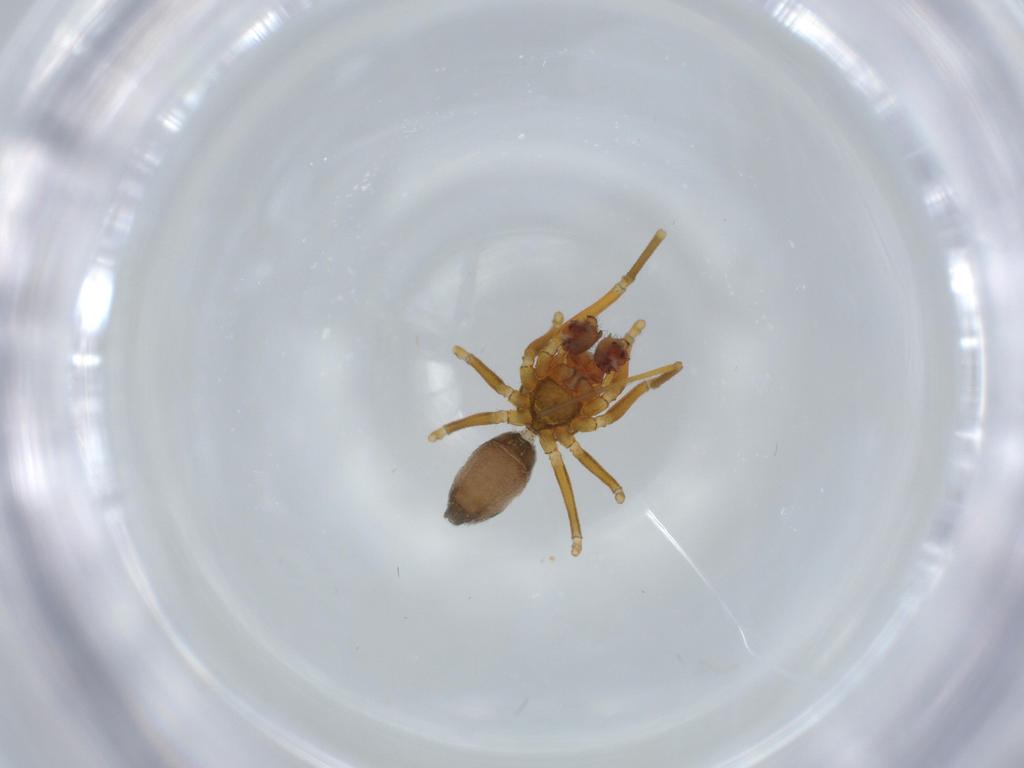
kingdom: Animalia
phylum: Arthropoda
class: Arachnida
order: Araneae
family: Linyphiidae
